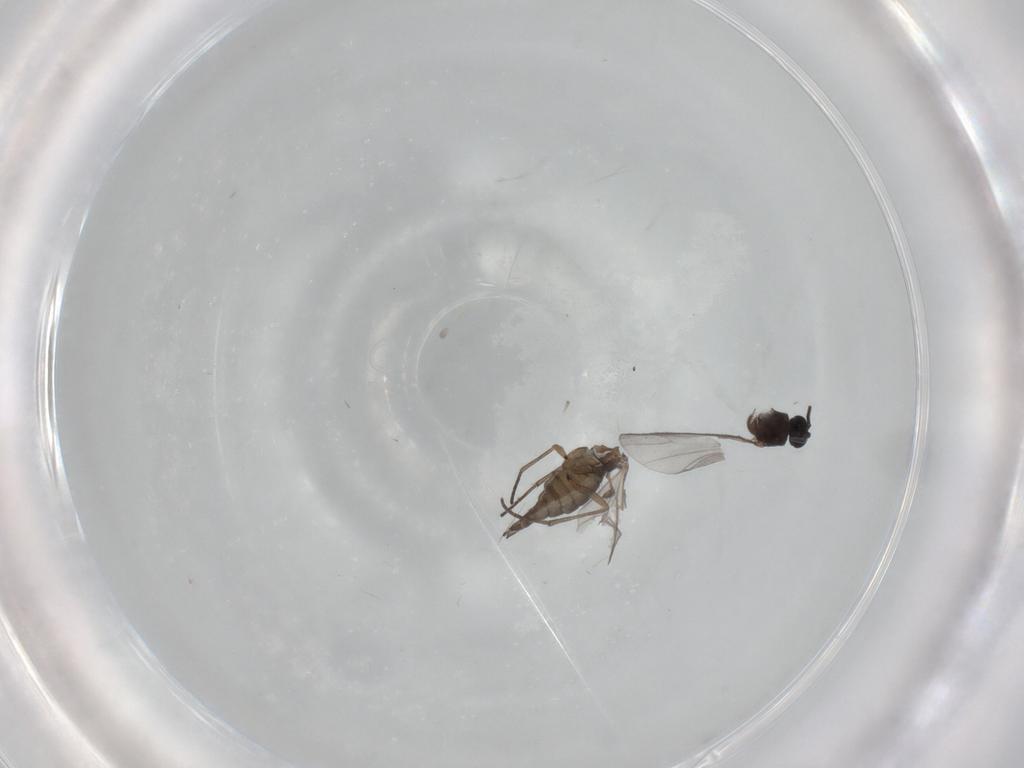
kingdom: Animalia
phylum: Arthropoda
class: Insecta
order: Diptera
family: Sciaridae
